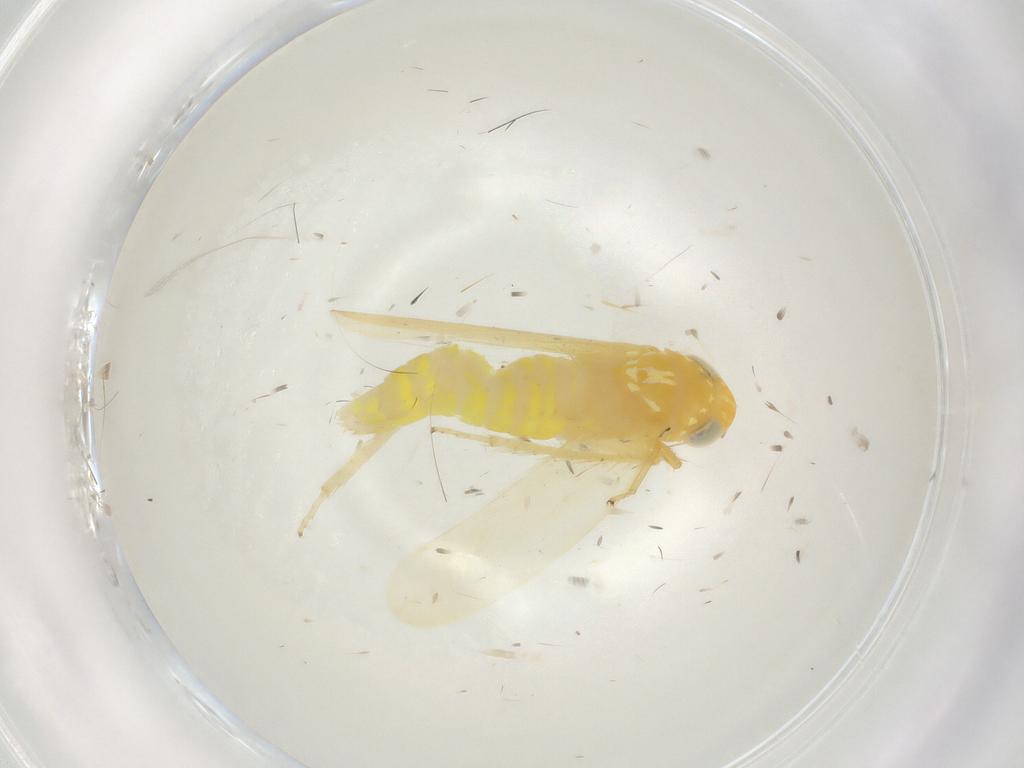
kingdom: Animalia
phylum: Arthropoda
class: Insecta
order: Hemiptera
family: Cicadellidae
